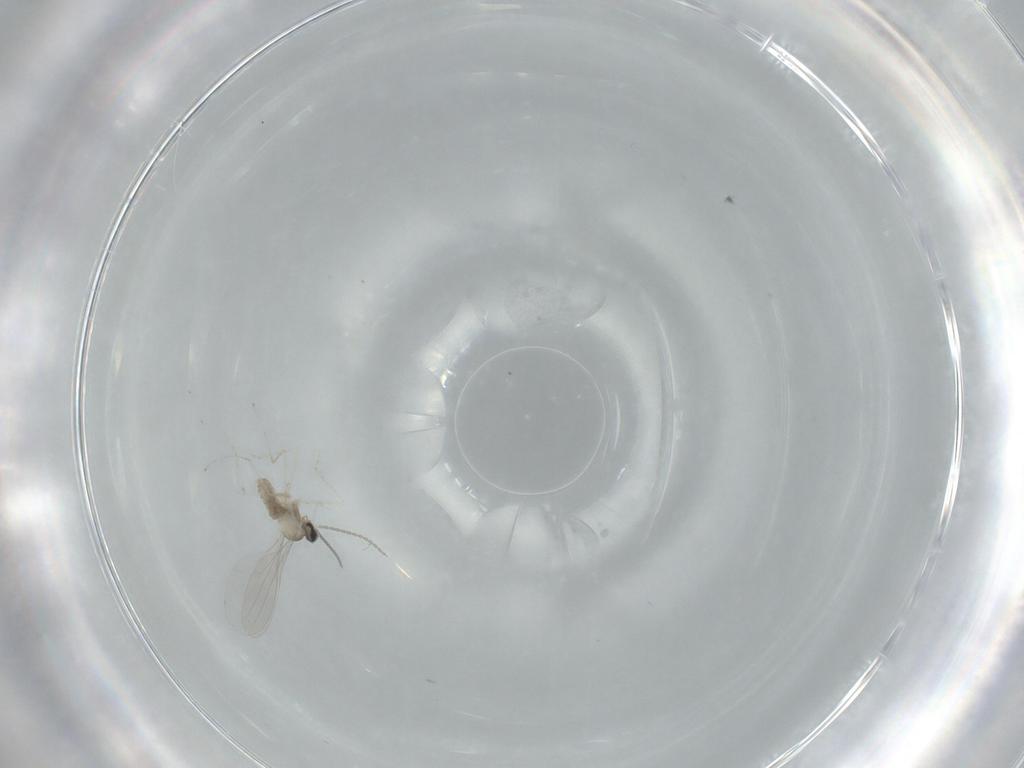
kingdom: Animalia
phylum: Arthropoda
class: Insecta
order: Diptera
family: Cecidomyiidae
